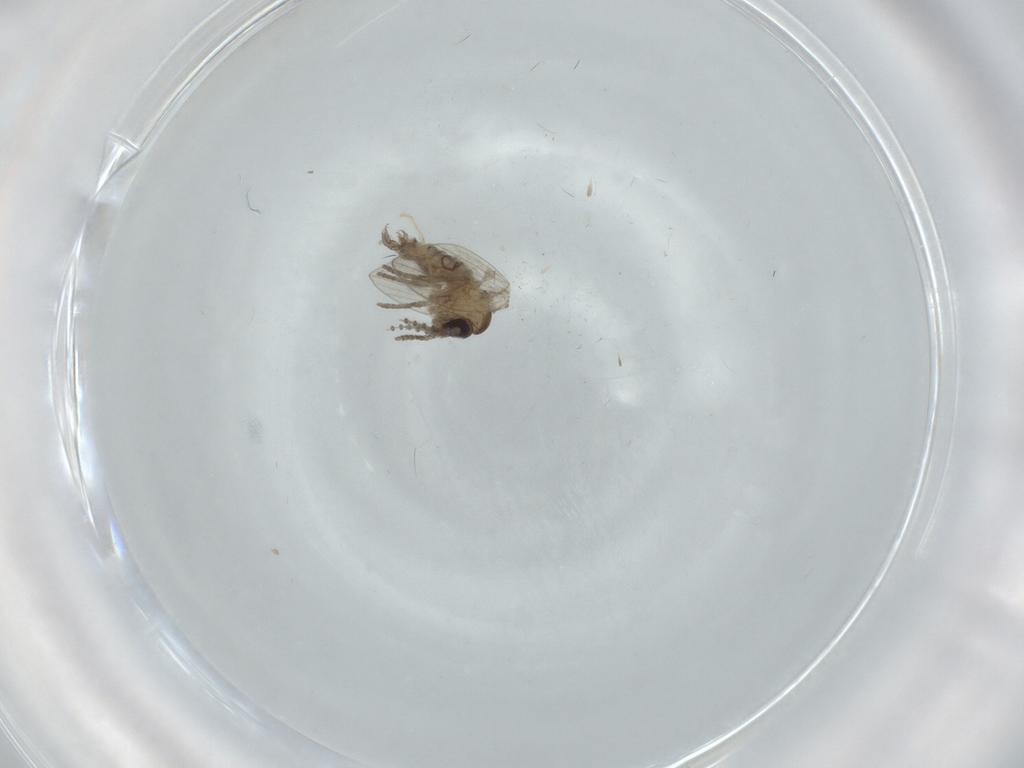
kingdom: Animalia
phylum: Arthropoda
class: Insecta
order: Diptera
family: Psychodidae
